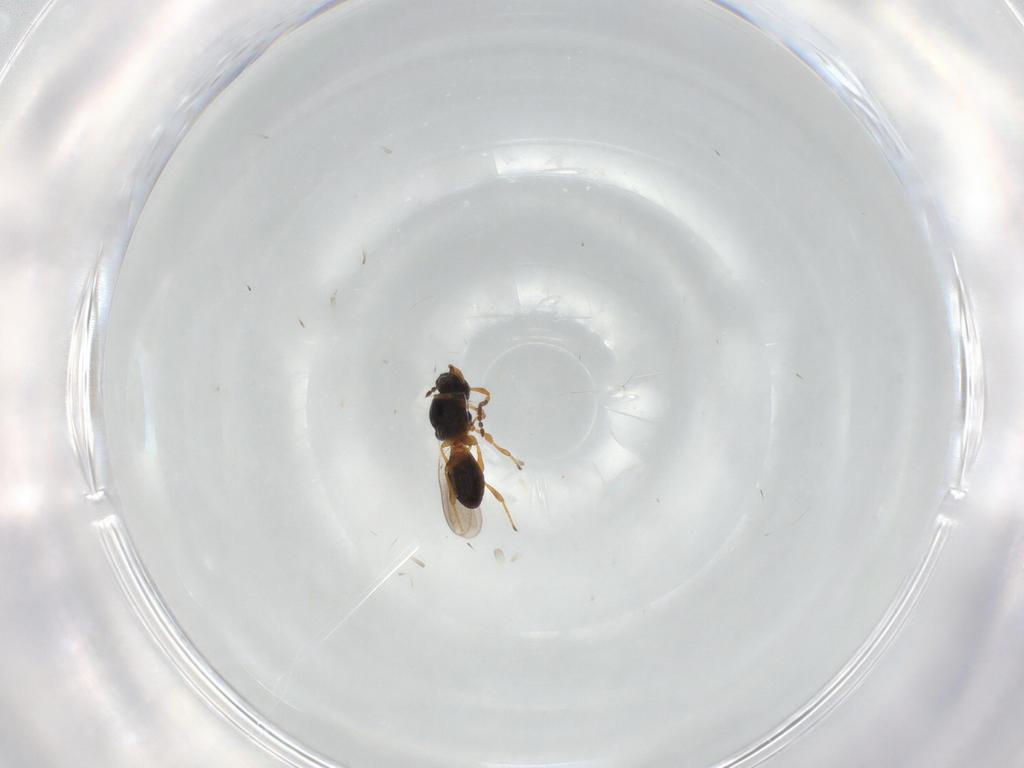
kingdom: Animalia
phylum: Arthropoda
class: Insecta
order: Hymenoptera
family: Platygastridae
